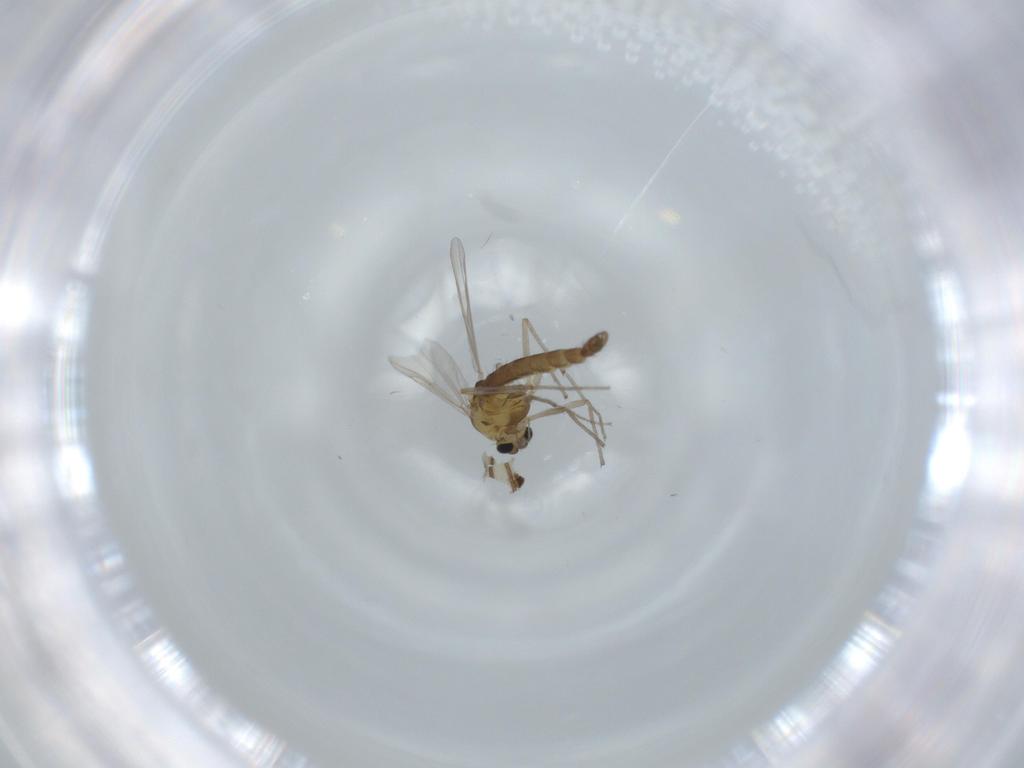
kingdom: Animalia
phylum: Arthropoda
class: Insecta
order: Diptera
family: Chironomidae
